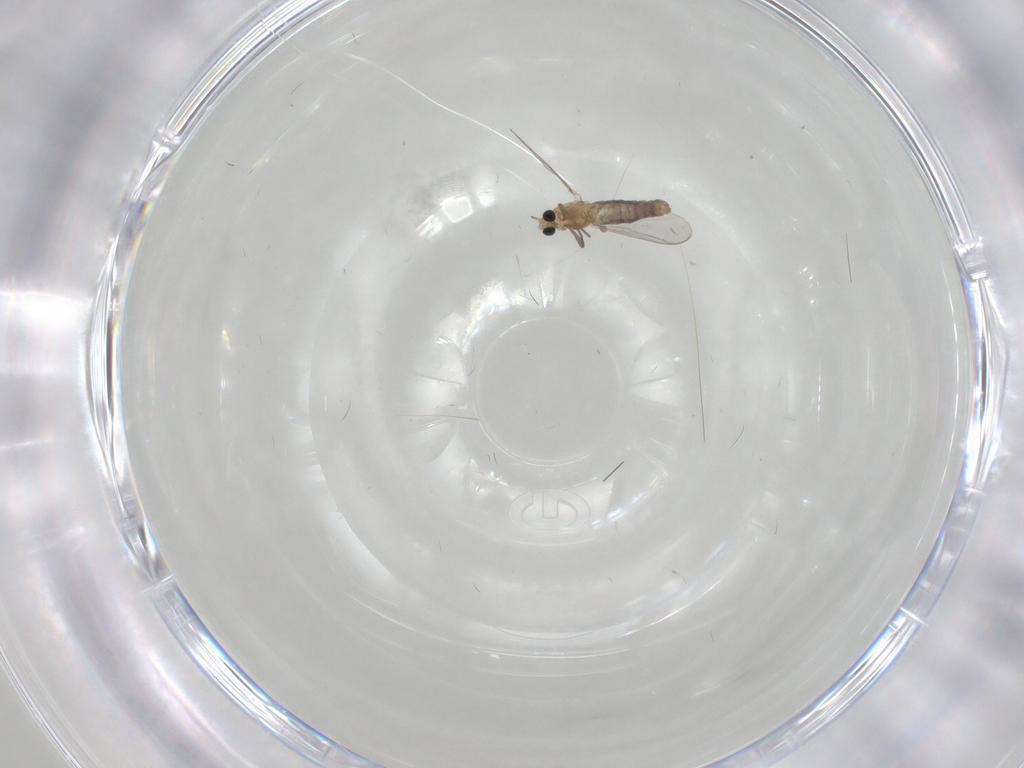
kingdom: Animalia
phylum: Arthropoda
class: Insecta
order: Diptera
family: Chironomidae
